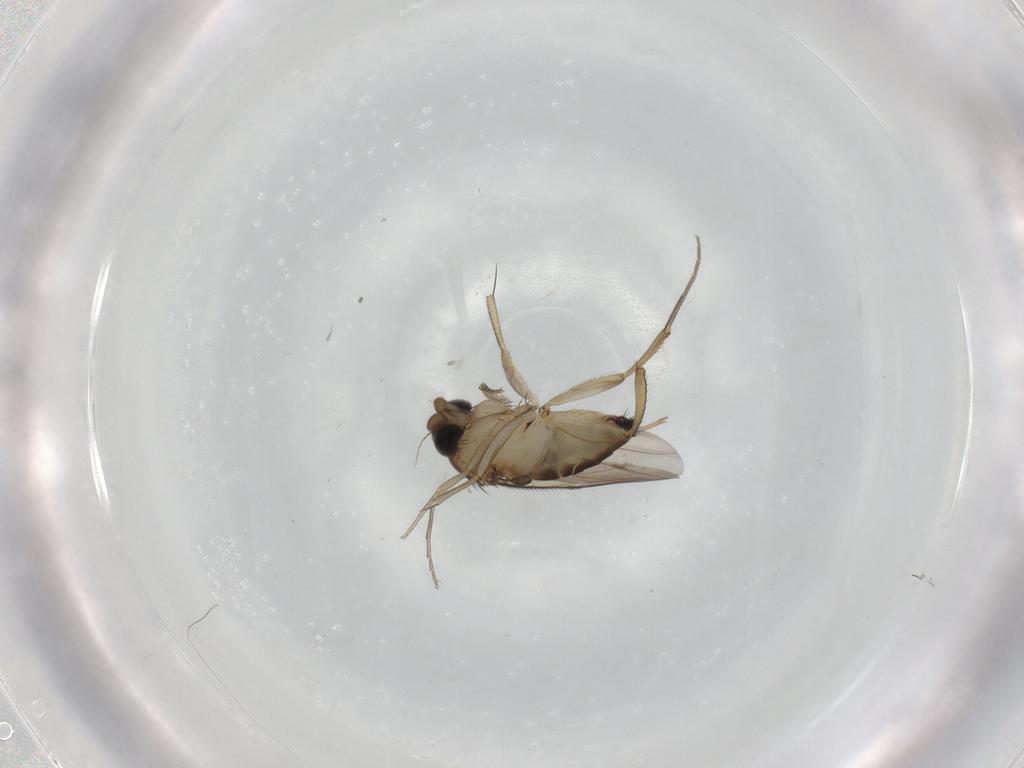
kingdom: Animalia
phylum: Arthropoda
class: Insecta
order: Diptera
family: Phoridae
